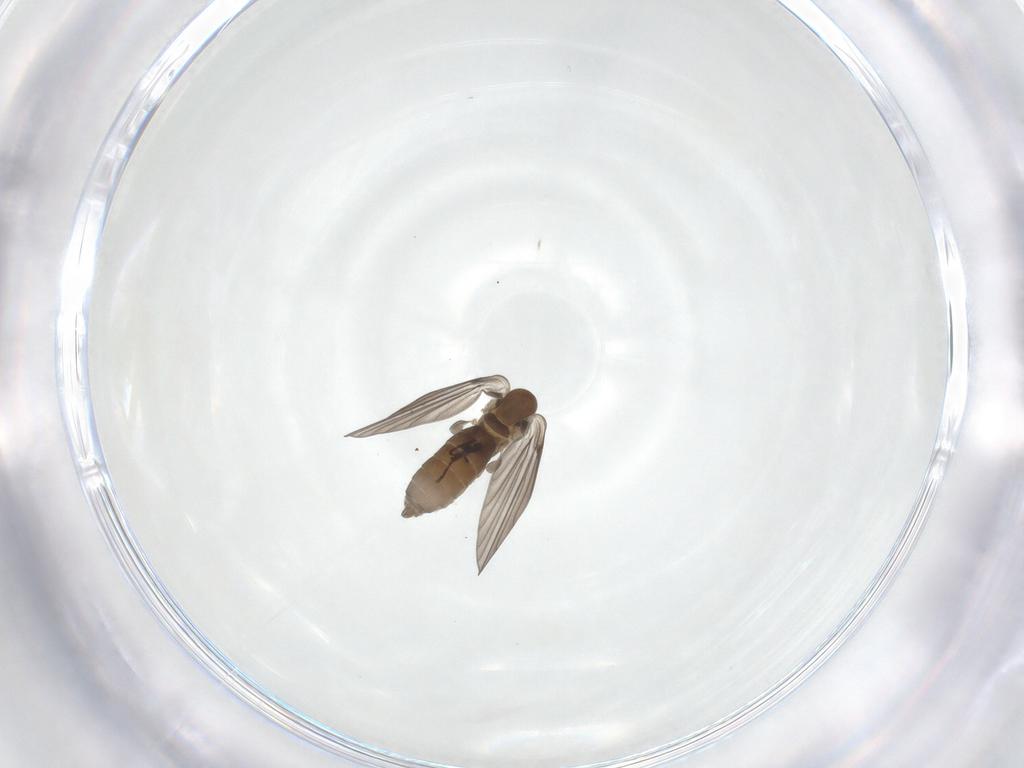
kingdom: Animalia
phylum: Arthropoda
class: Insecta
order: Diptera
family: Psychodidae
